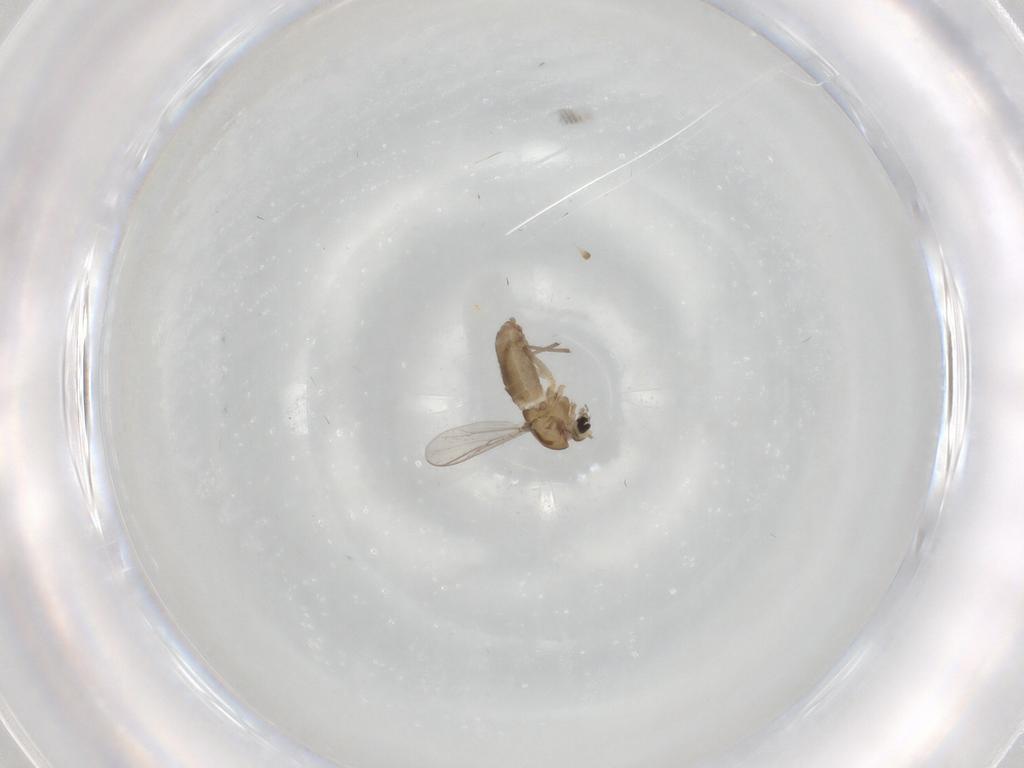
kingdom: Animalia
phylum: Arthropoda
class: Insecta
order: Diptera
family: Chironomidae
